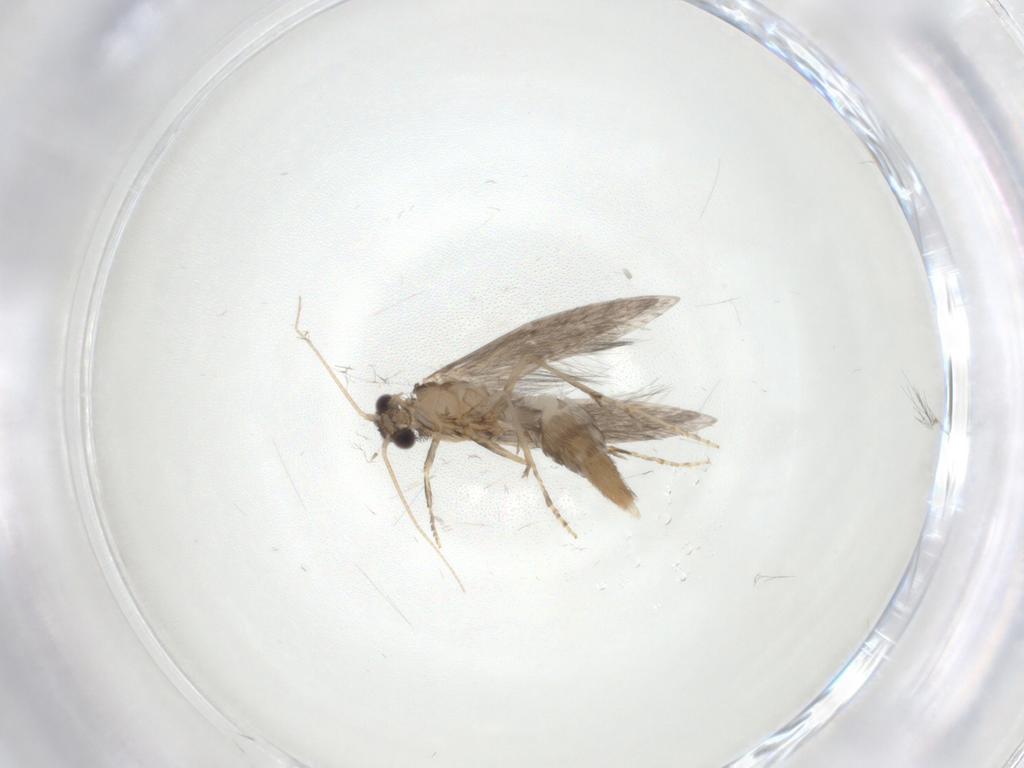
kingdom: Animalia
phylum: Arthropoda
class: Insecta
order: Trichoptera
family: Hydroptilidae
